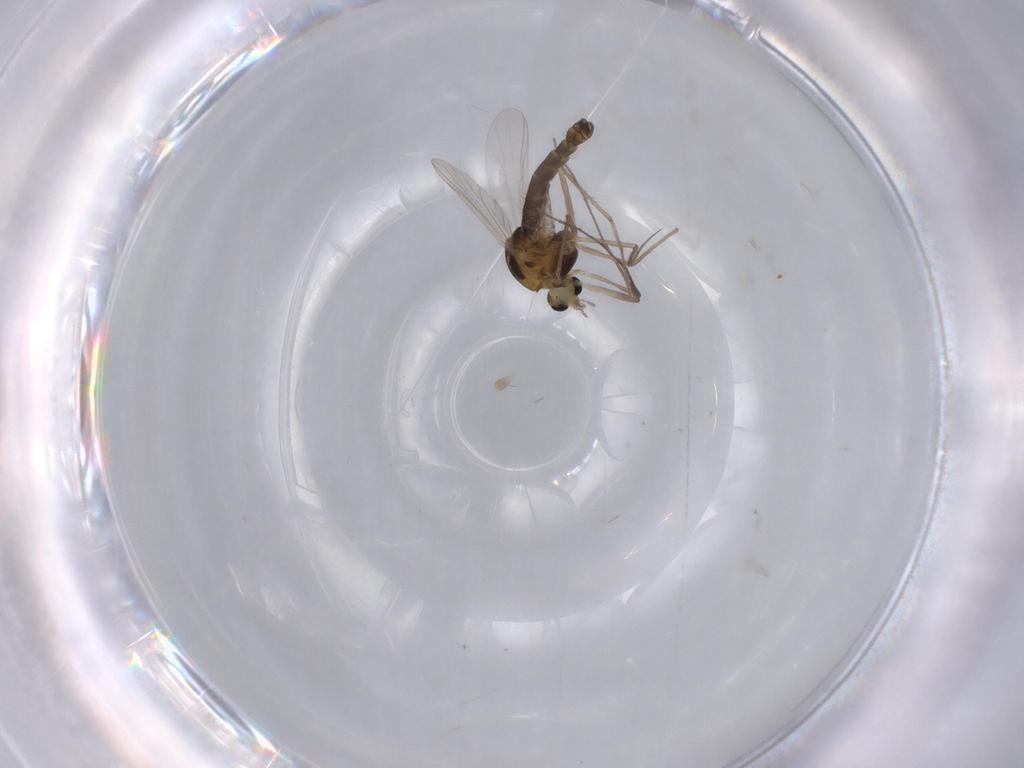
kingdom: Animalia
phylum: Arthropoda
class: Insecta
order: Diptera
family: Chironomidae
